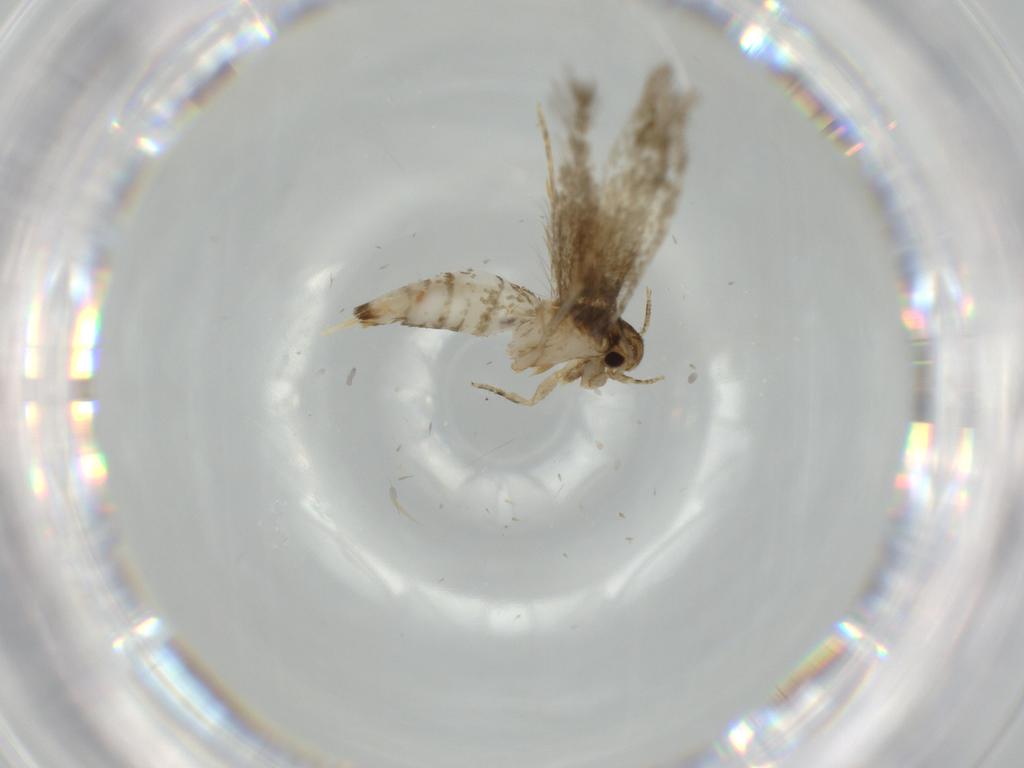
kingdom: Animalia
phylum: Arthropoda
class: Insecta
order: Lepidoptera
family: Tineidae
